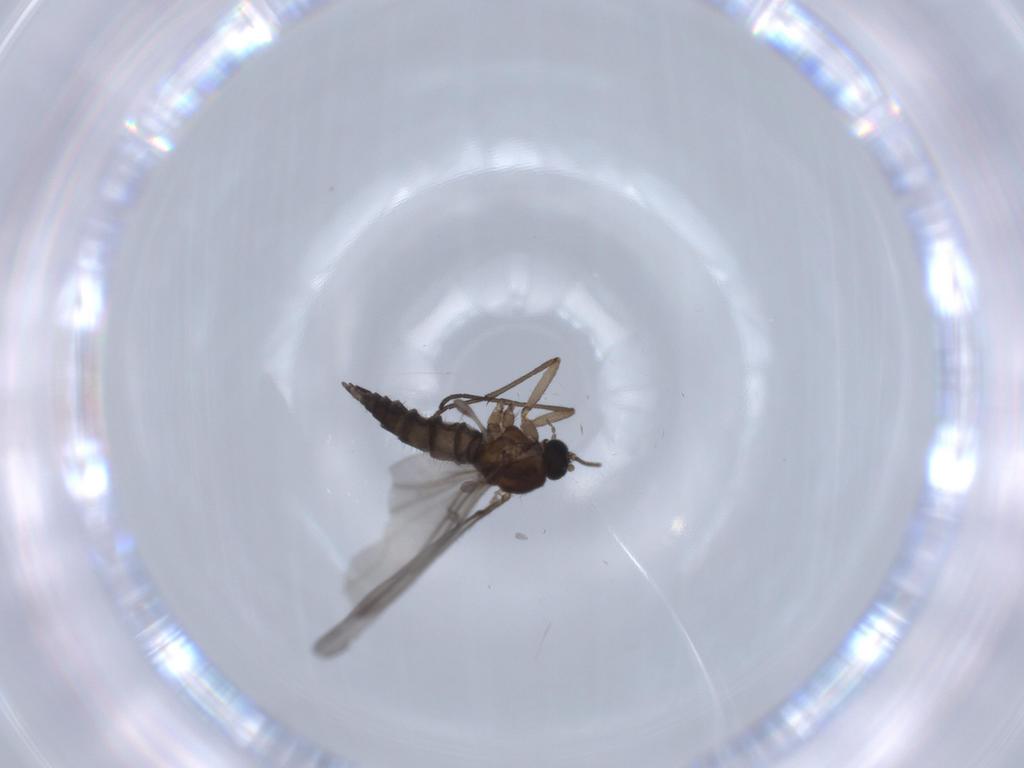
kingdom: Animalia
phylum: Arthropoda
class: Insecta
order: Diptera
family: Sciaridae
